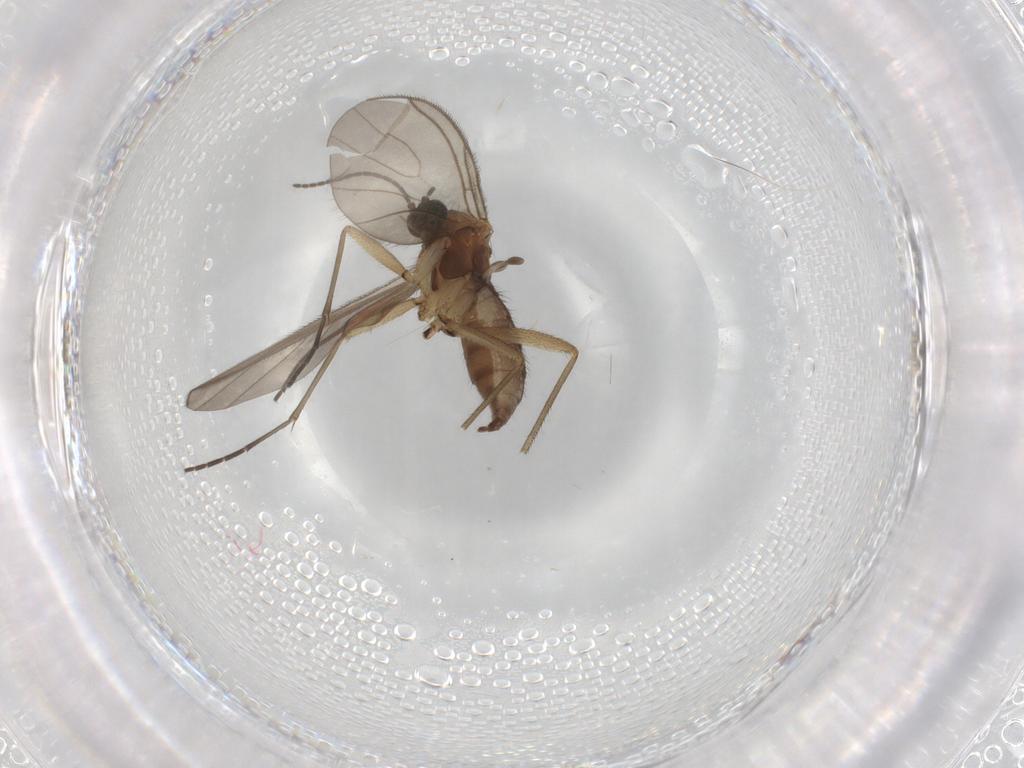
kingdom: Animalia
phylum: Arthropoda
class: Insecta
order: Diptera
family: Sciaridae
